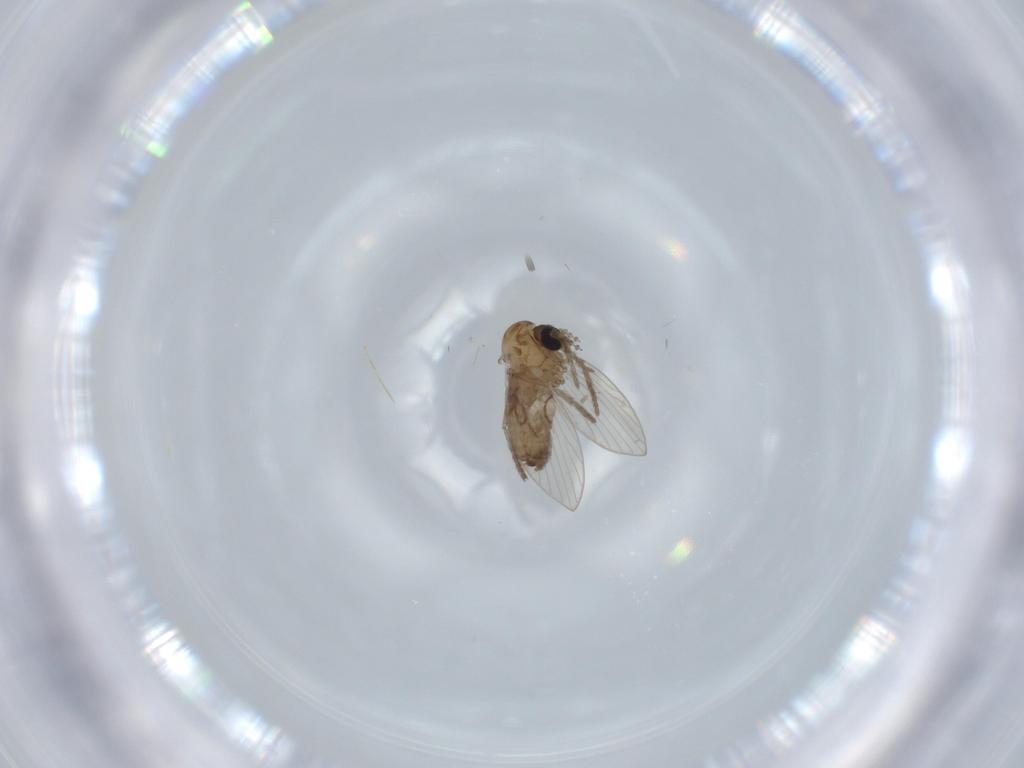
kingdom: Animalia
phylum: Arthropoda
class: Insecta
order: Diptera
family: Psychodidae
